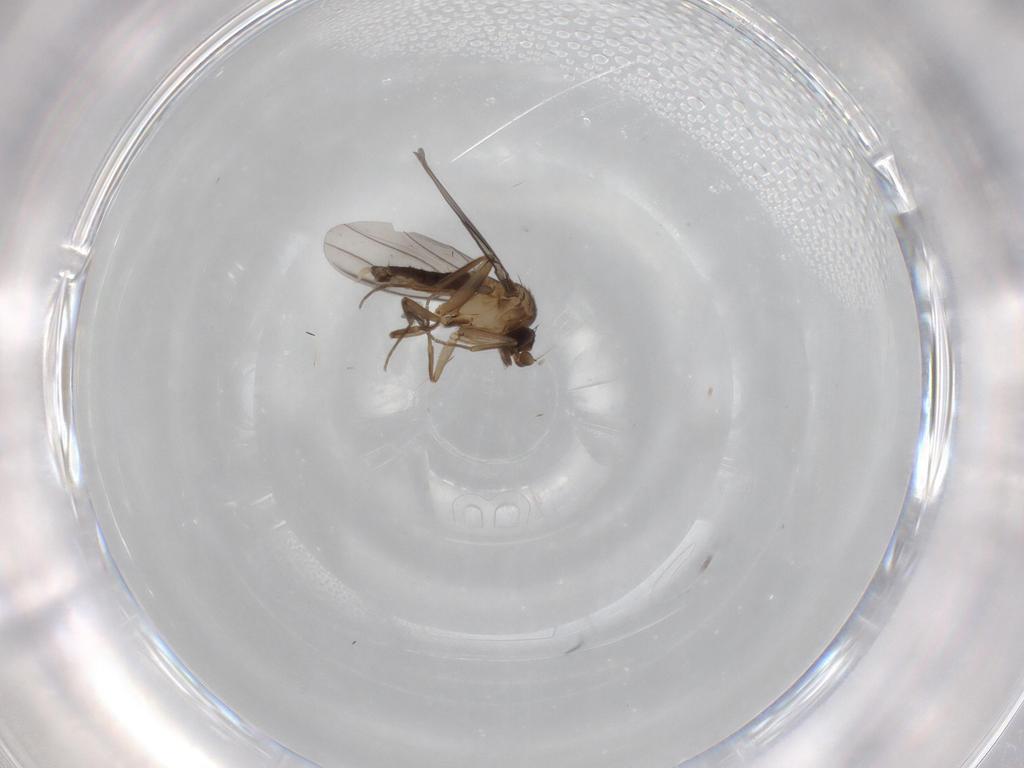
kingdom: Animalia
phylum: Arthropoda
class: Insecta
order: Diptera
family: Phoridae
